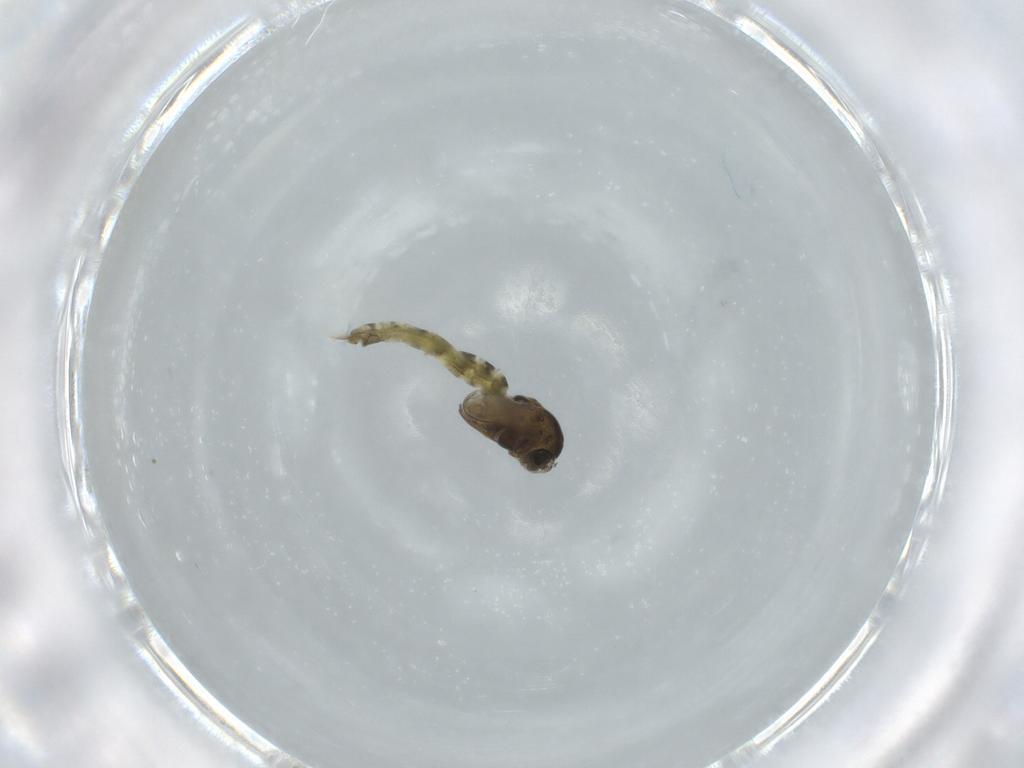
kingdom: Animalia
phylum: Arthropoda
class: Insecta
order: Diptera
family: Chironomidae
